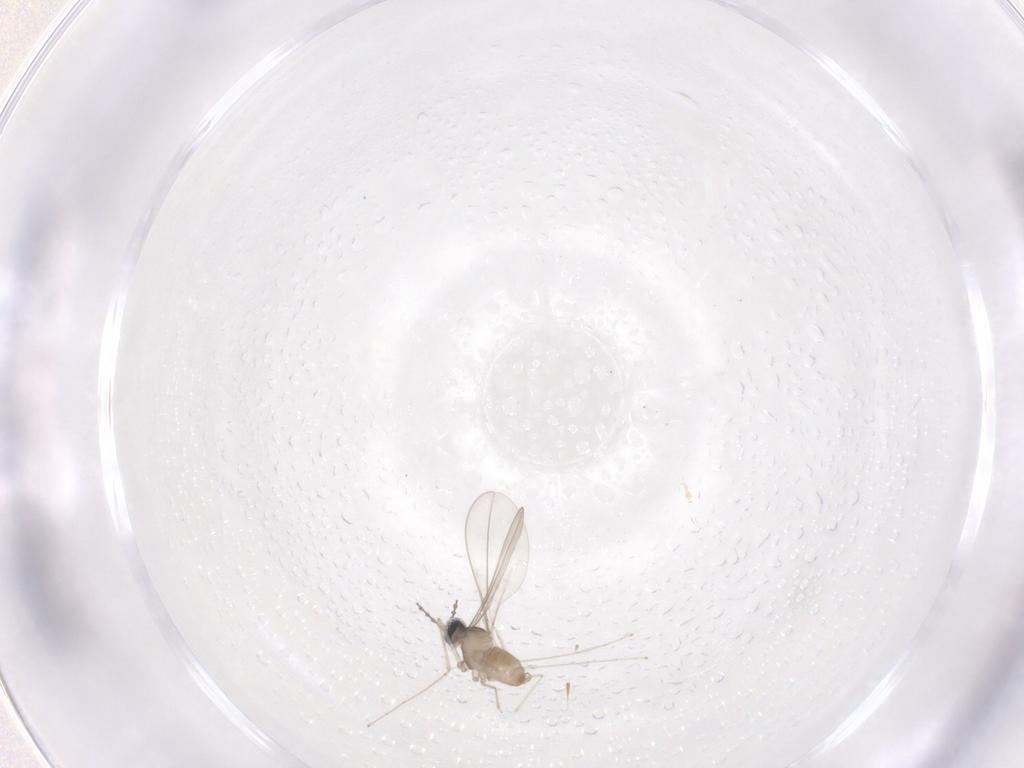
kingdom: Animalia
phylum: Arthropoda
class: Insecta
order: Diptera
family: Cecidomyiidae
